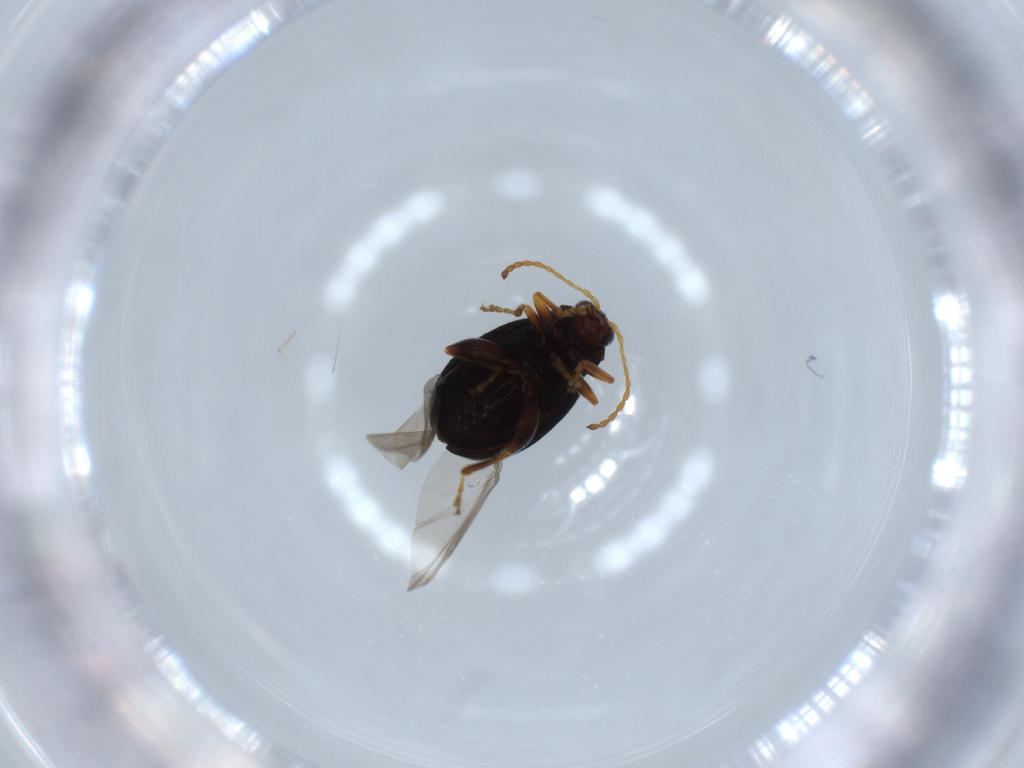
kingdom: Animalia
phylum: Arthropoda
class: Insecta
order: Coleoptera
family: Chrysomelidae
